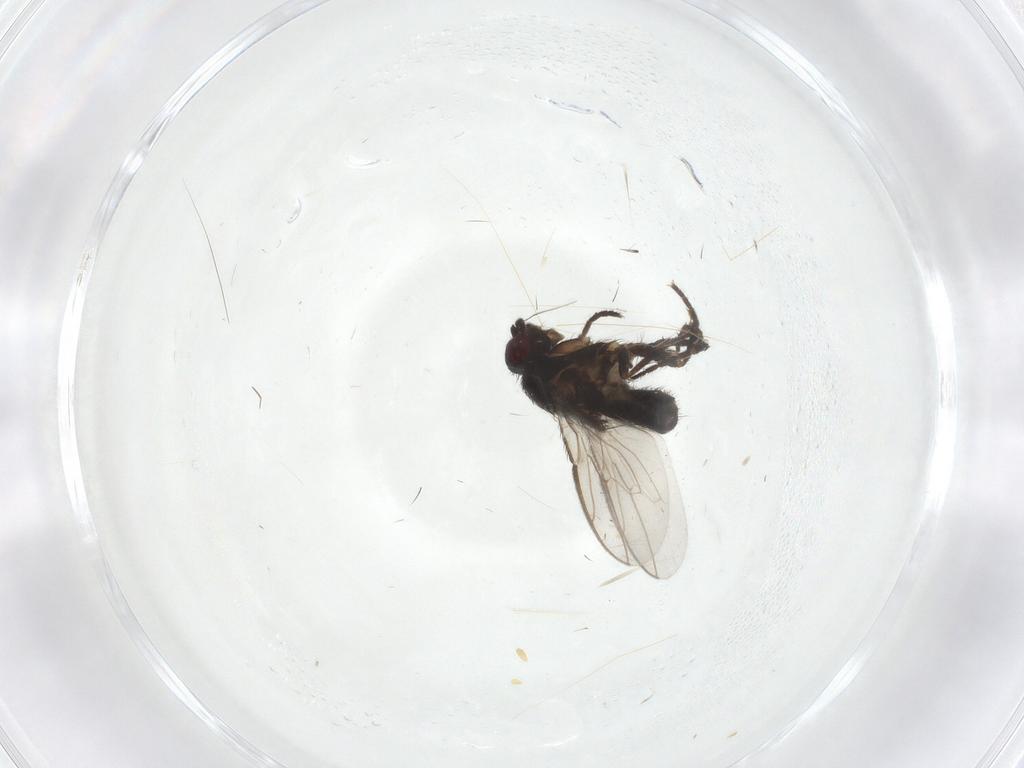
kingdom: Animalia
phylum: Arthropoda
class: Insecta
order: Diptera
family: Sphaeroceridae
